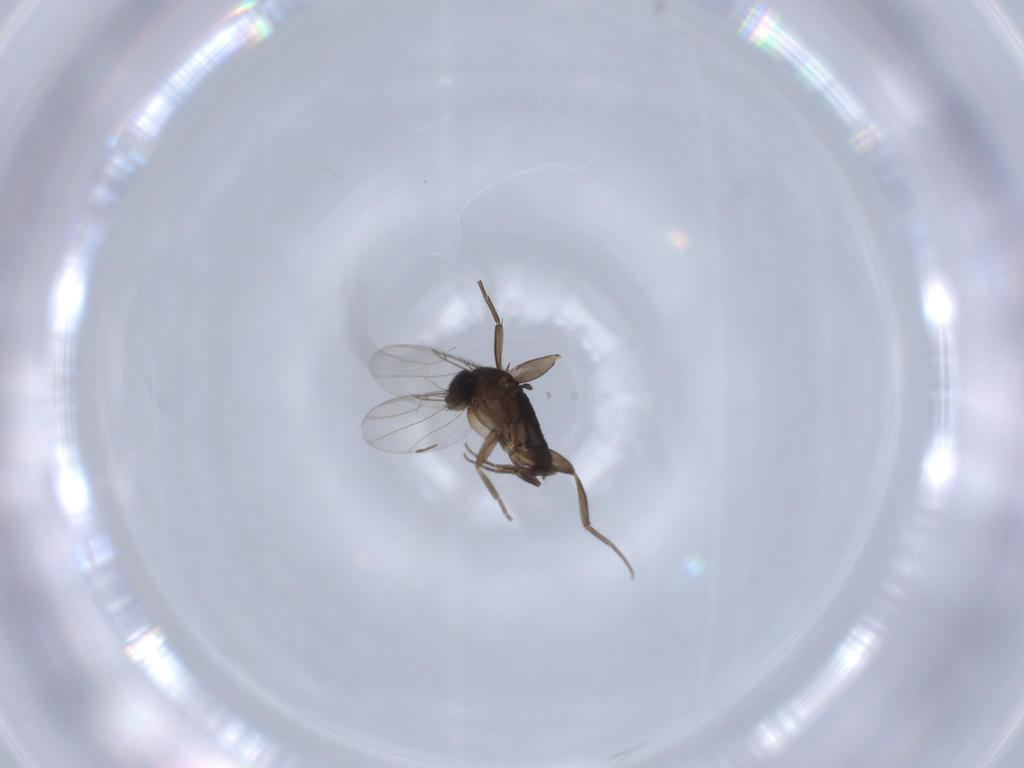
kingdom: Animalia
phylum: Arthropoda
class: Insecta
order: Diptera
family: Phoridae
